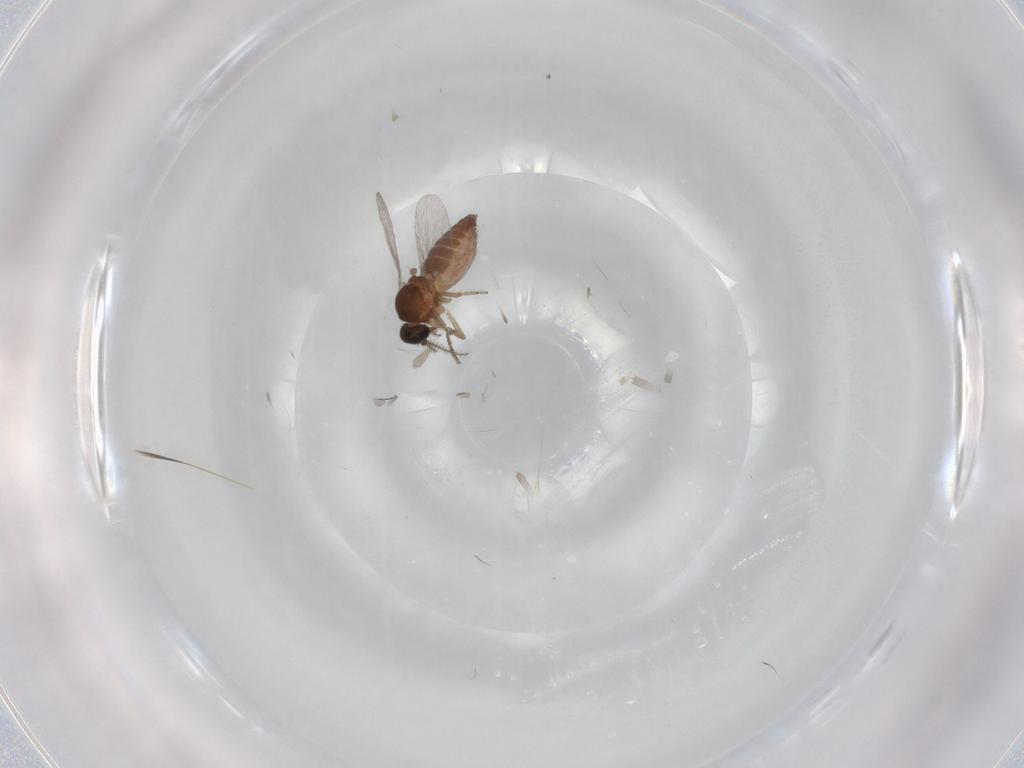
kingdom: Animalia
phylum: Arthropoda
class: Insecta
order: Diptera
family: Ceratopogonidae
